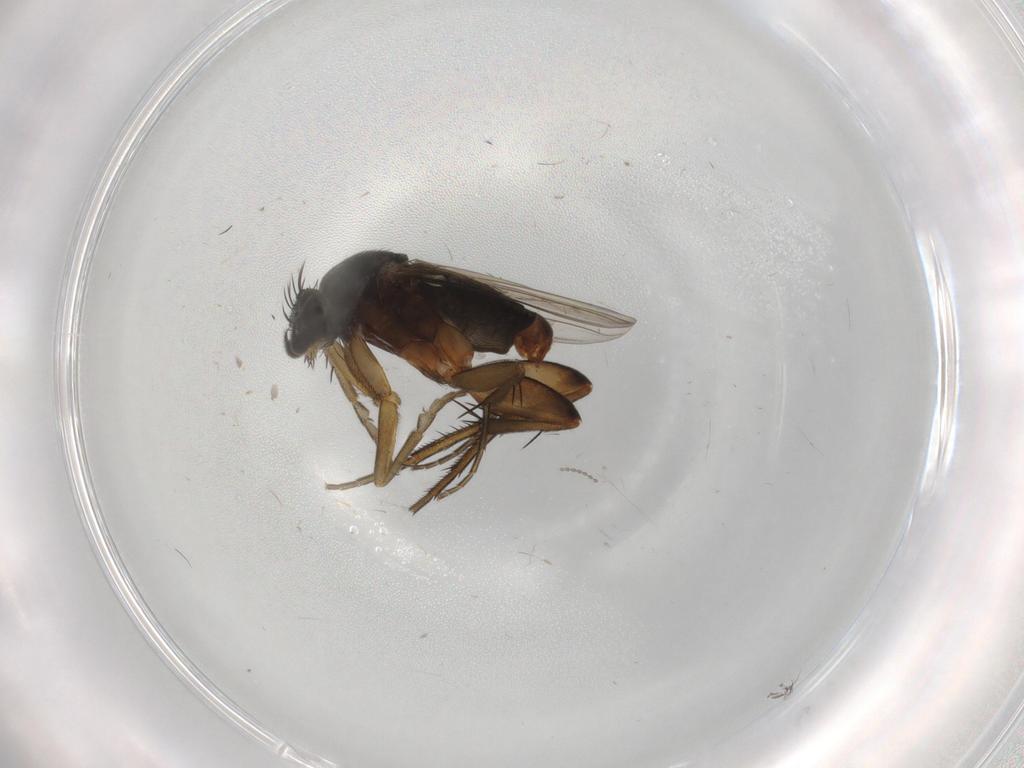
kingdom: Animalia
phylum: Arthropoda
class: Insecta
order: Diptera
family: Phoridae
